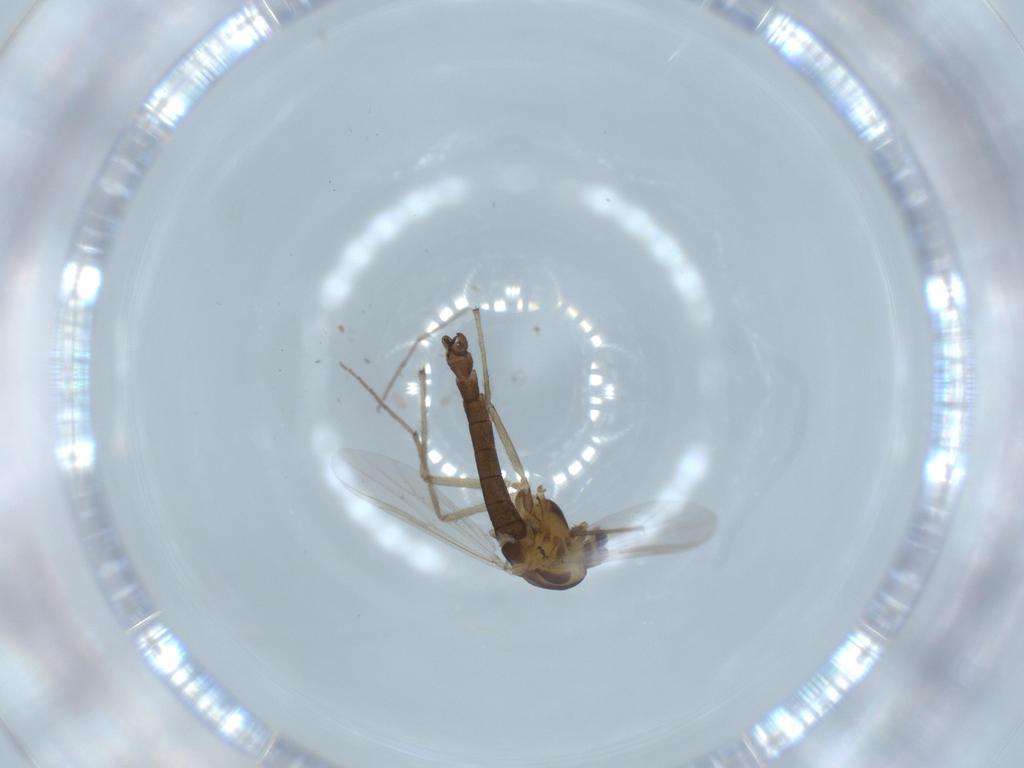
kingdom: Animalia
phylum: Arthropoda
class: Insecta
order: Diptera
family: Chironomidae
